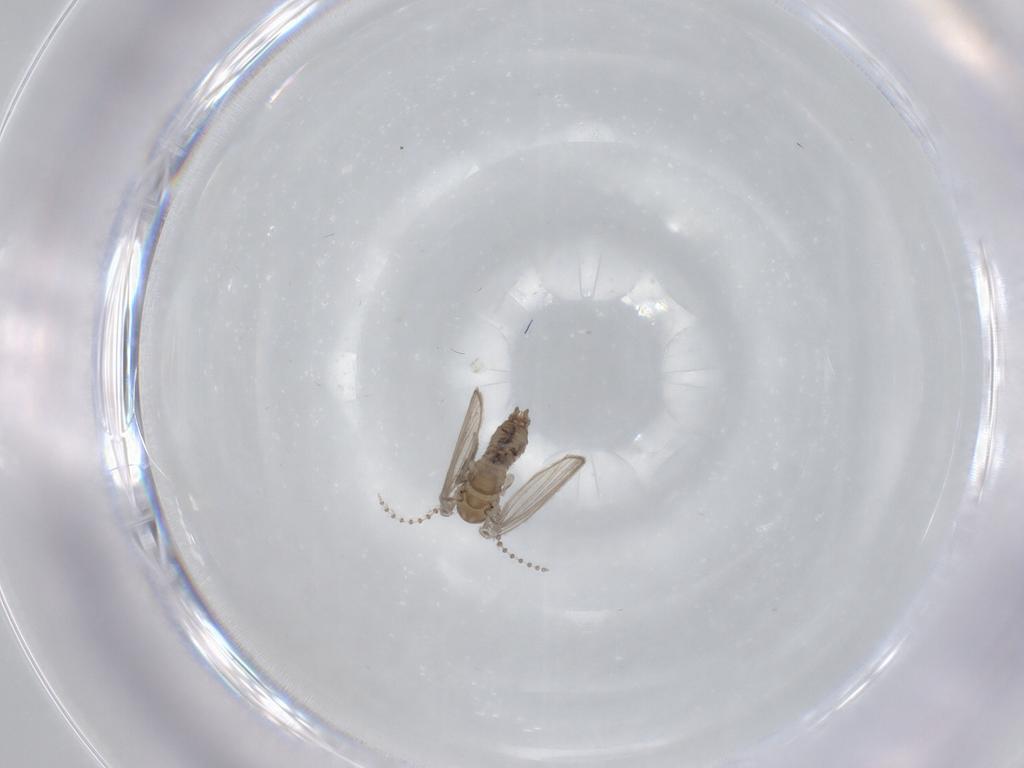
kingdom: Animalia
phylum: Arthropoda
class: Insecta
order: Diptera
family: Psychodidae
